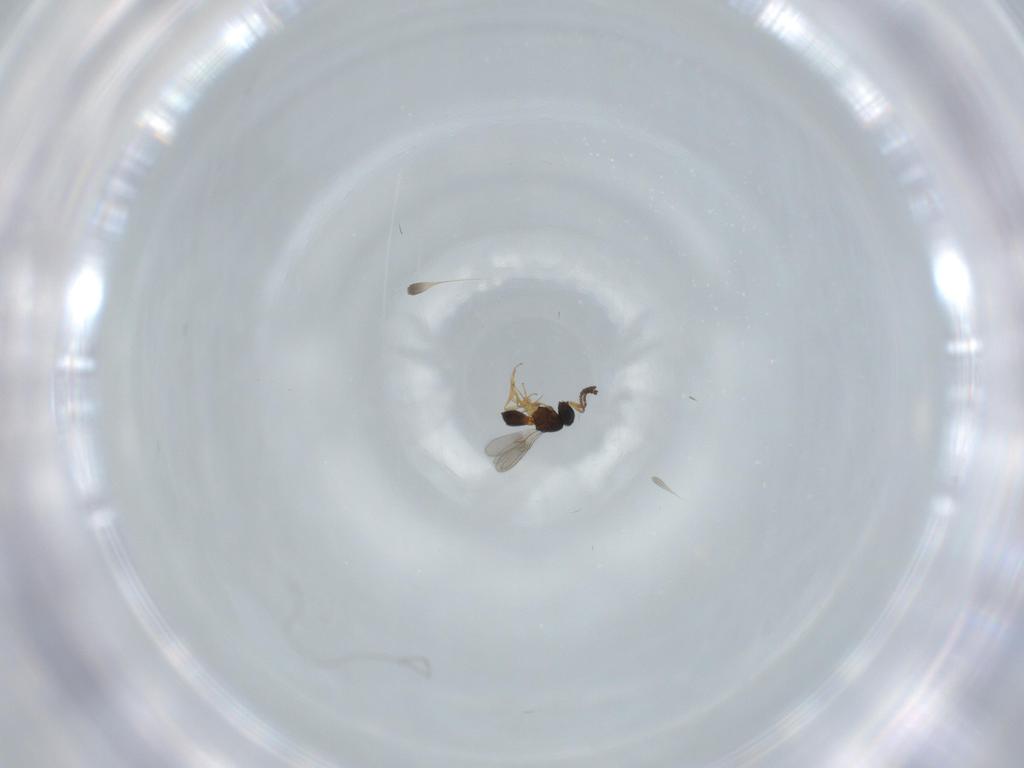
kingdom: Animalia
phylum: Arthropoda
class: Insecta
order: Hymenoptera
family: Scelionidae
